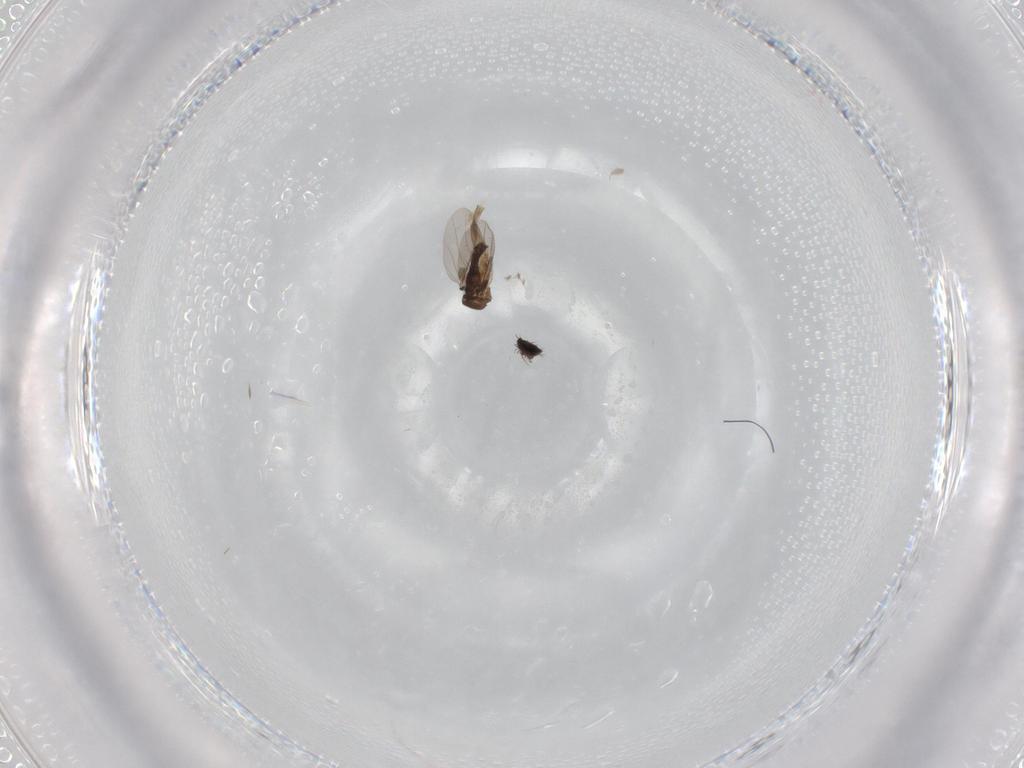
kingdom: Animalia
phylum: Arthropoda
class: Insecta
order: Diptera
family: Phoridae
